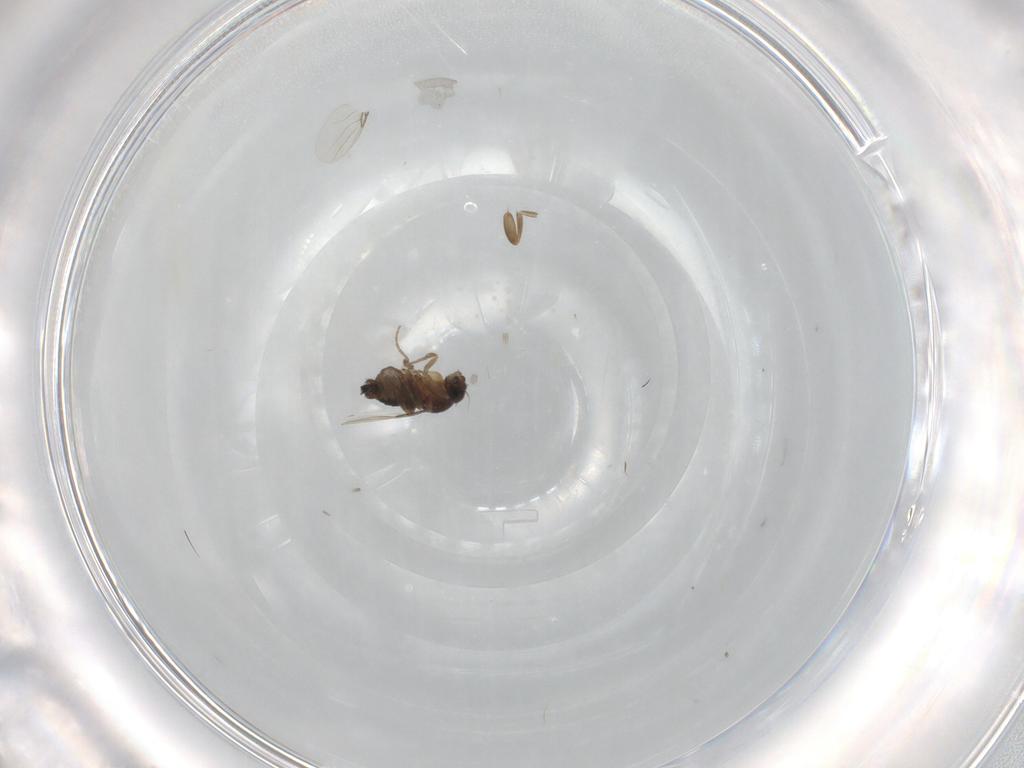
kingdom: Animalia
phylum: Arthropoda
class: Insecta
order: Diptera
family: Phoridae
